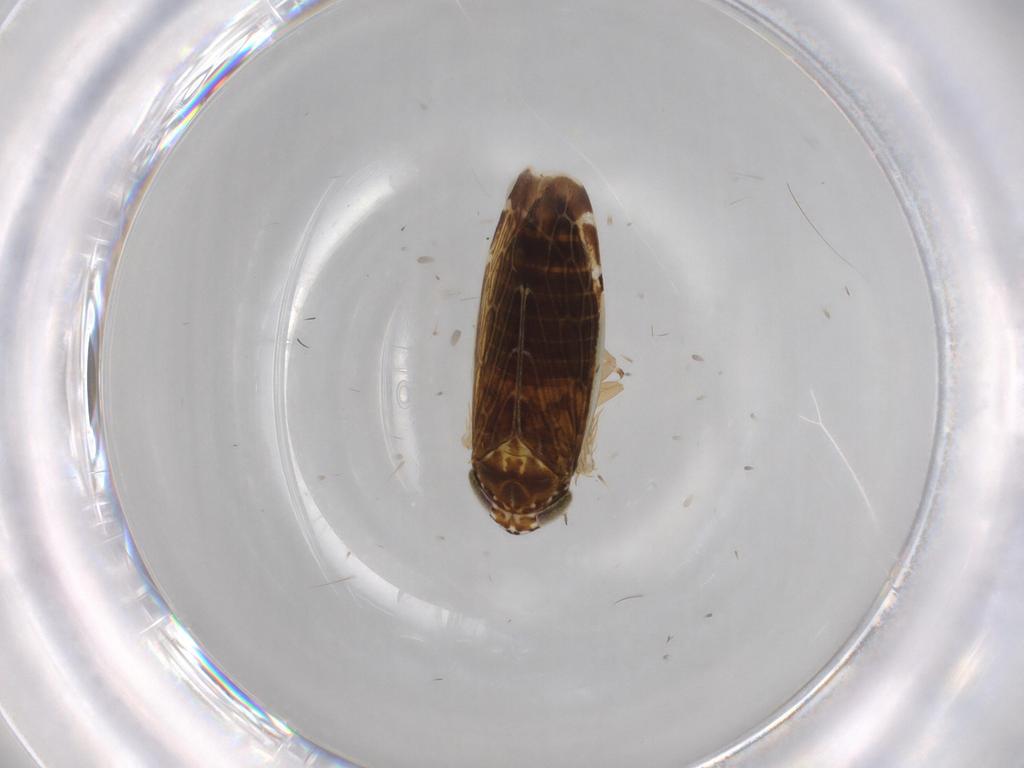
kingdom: Animalia
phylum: Arthropoda
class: Insecta
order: Hemiptera
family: Cicadellidae
